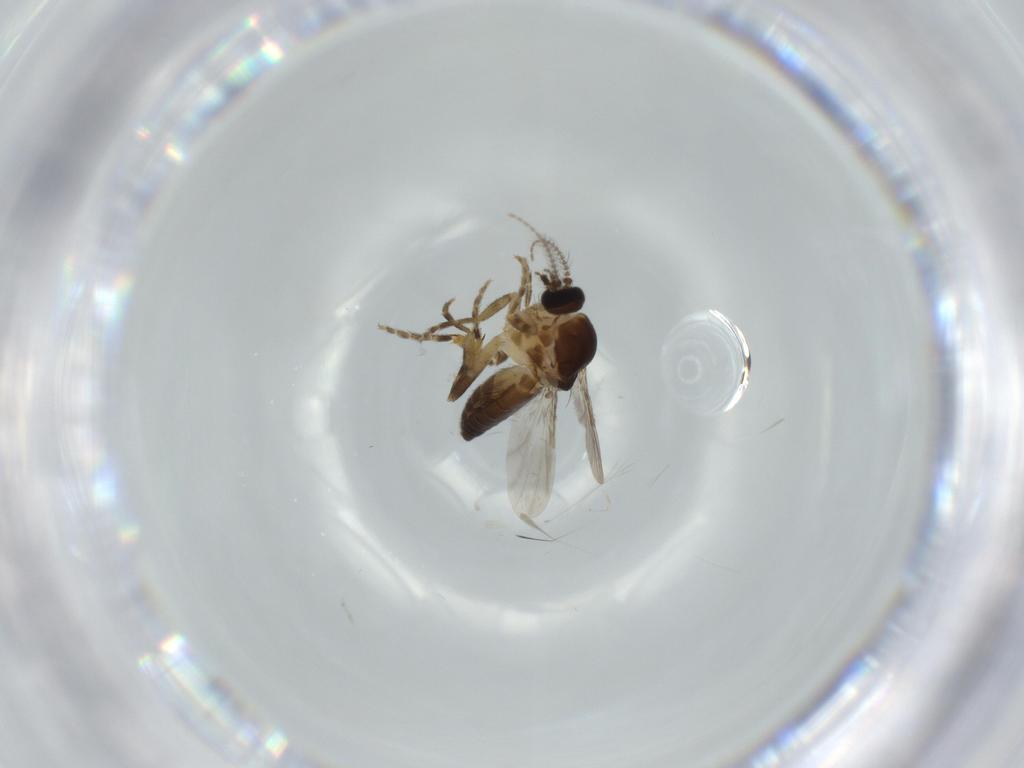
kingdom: Animalia
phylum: Arthropoda
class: Insecta
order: Diptera
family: Ceratopogonidae
